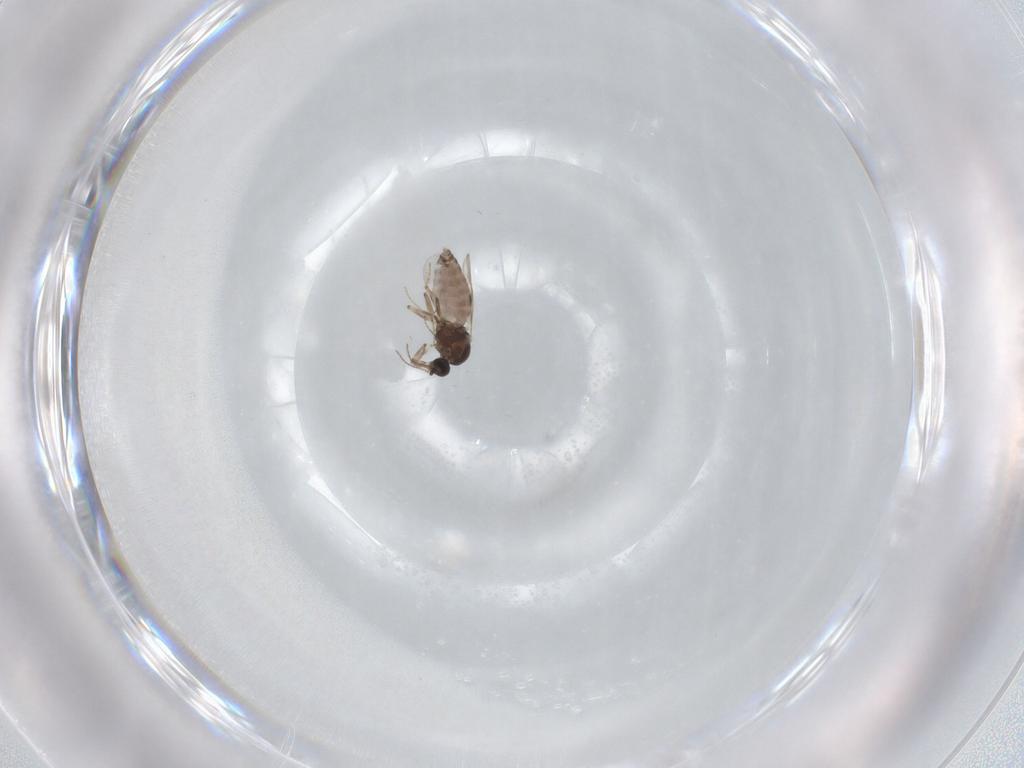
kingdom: Animalia
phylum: Arthropoda
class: Insecta
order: Diptera
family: Cecidomyiidae
